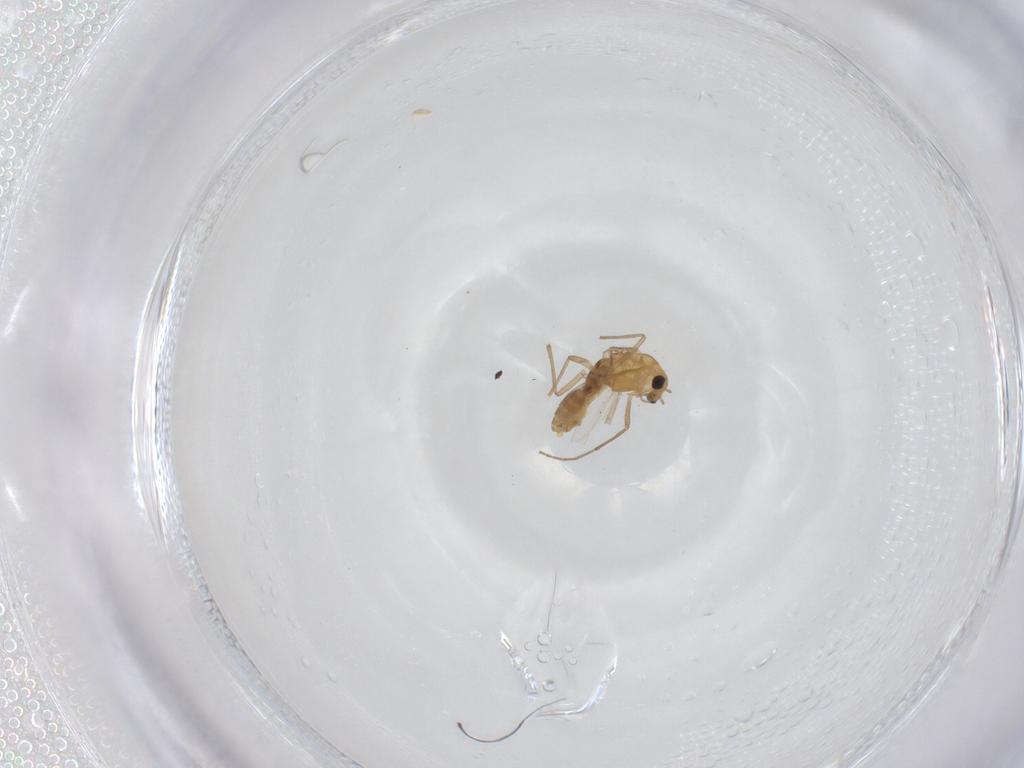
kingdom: Animalia
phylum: Arthropoda
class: Insecta
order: Diptera
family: Chironomidae
